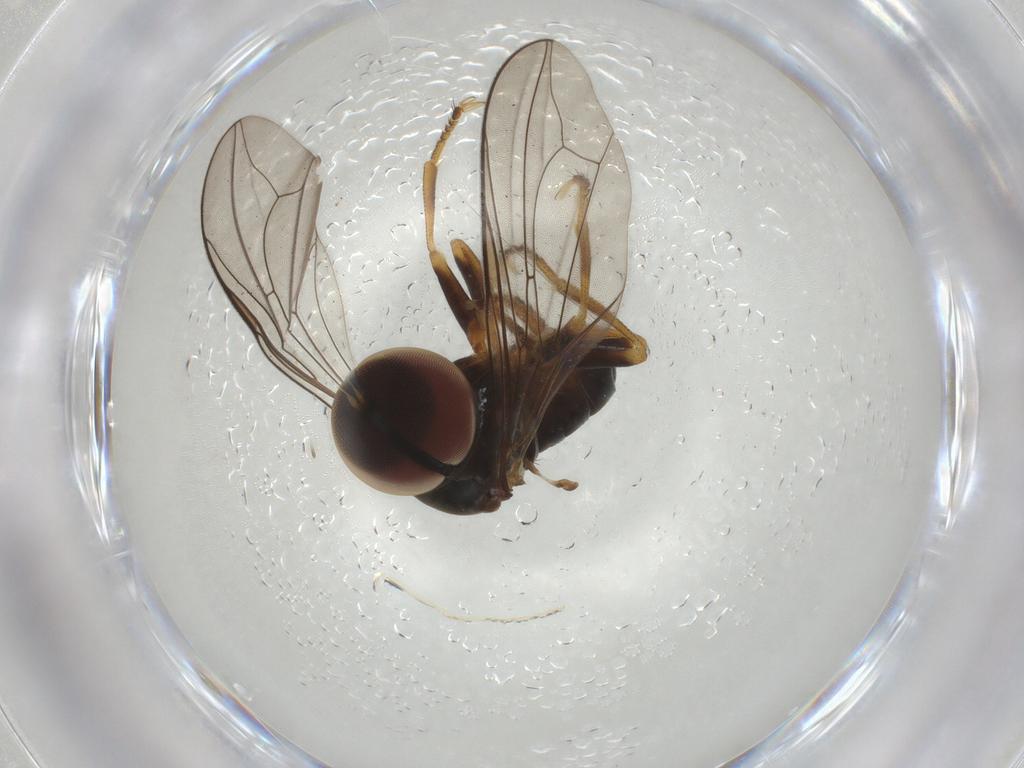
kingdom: Animalia
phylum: Arthropoda
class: Insecta
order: Diptera
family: Pipunculidae
